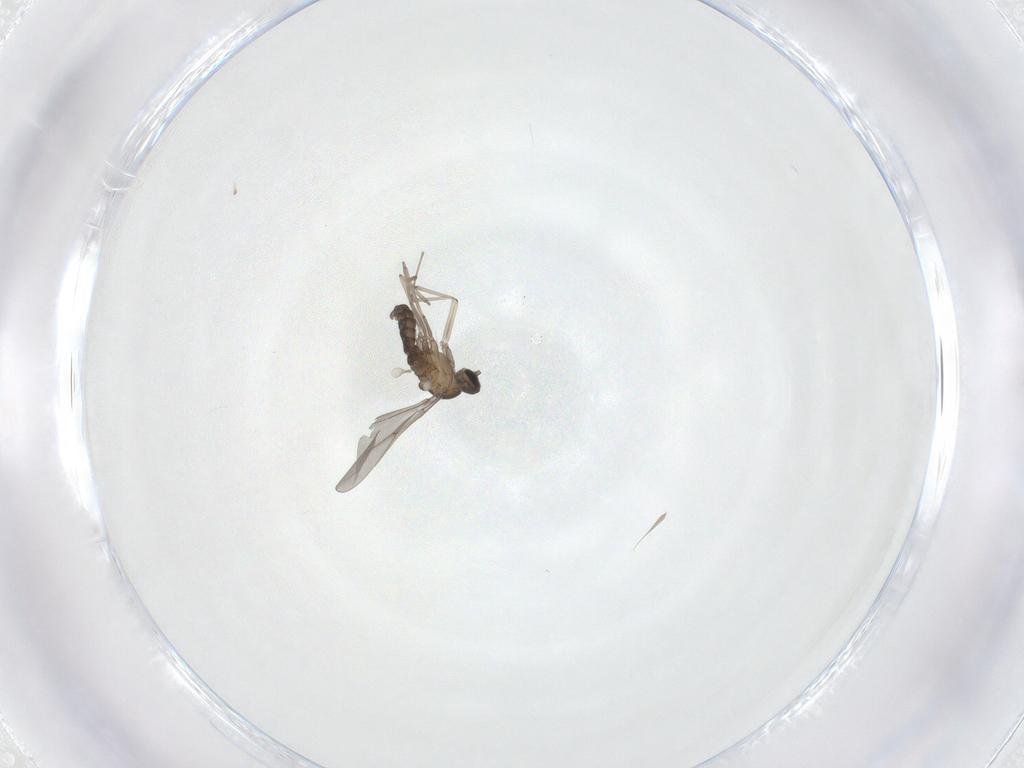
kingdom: Animalia
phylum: Arthropoda
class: Insecta
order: Diptera
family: Cecidomyiidae
